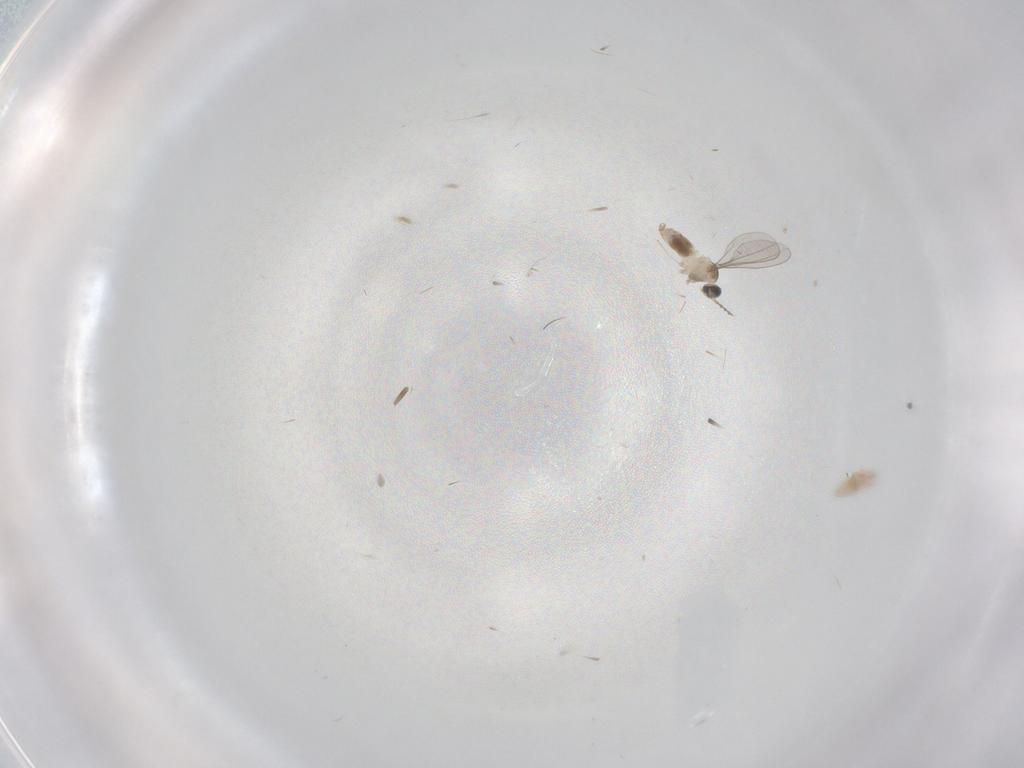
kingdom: Animalia
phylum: Arthropoda
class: Insecta
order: Diptera
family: Cecidomyiidae
